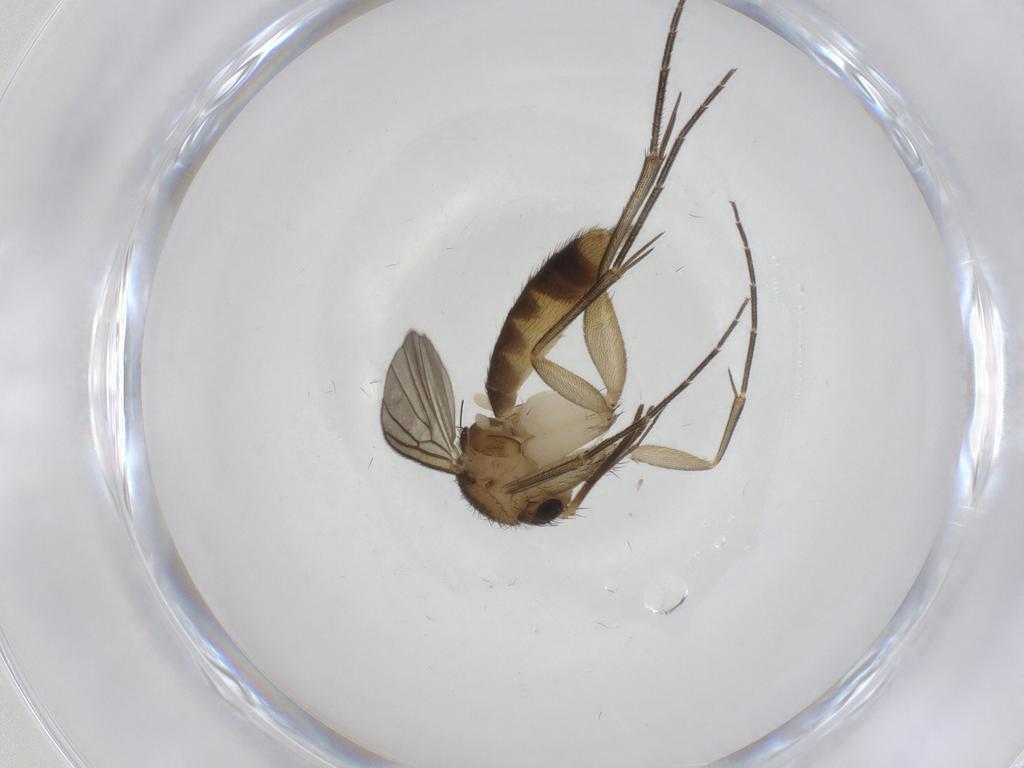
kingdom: Animalia
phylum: Arthropoda
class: Insecta
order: Diptera
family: Mycetophilidae
